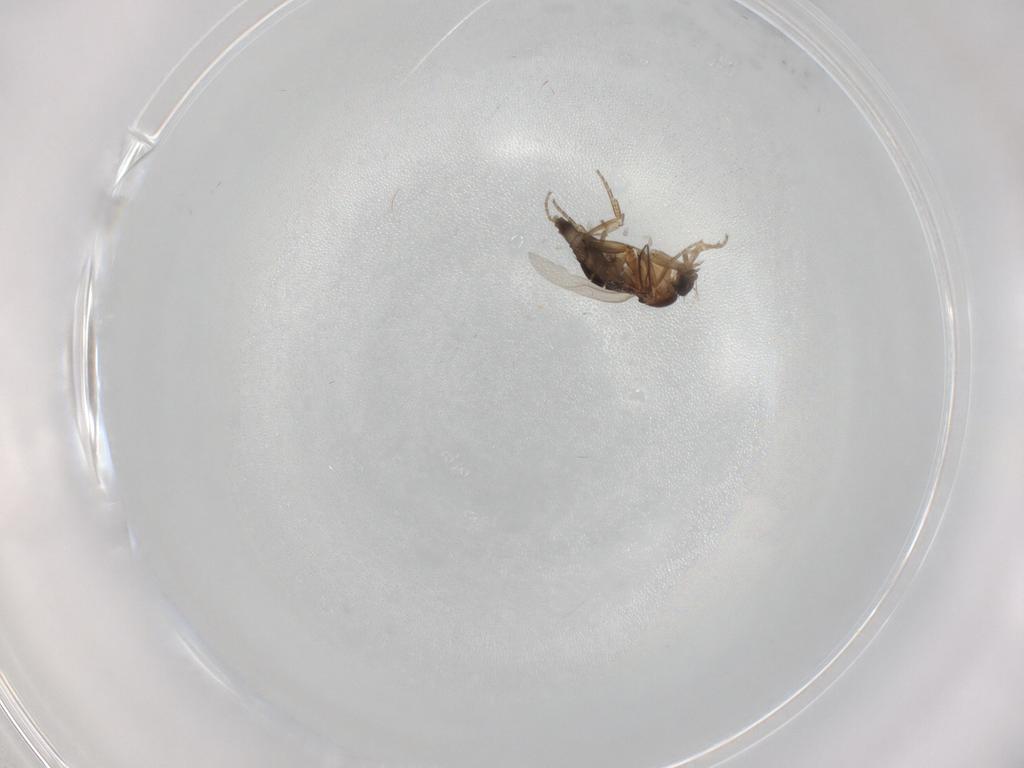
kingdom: Animalia
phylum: Arthropoda
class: Insecta
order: Diptera
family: Phoridae
